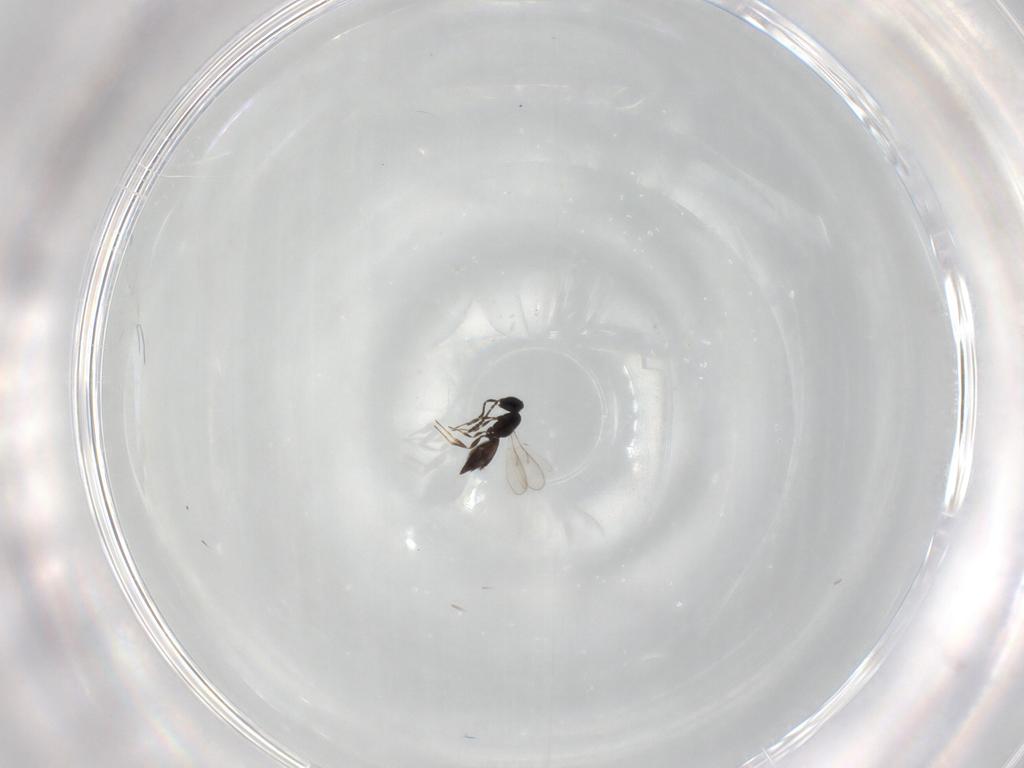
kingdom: Animalia
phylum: Arthropoda
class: Insecta
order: Hymenoptera
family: Scelionidae
